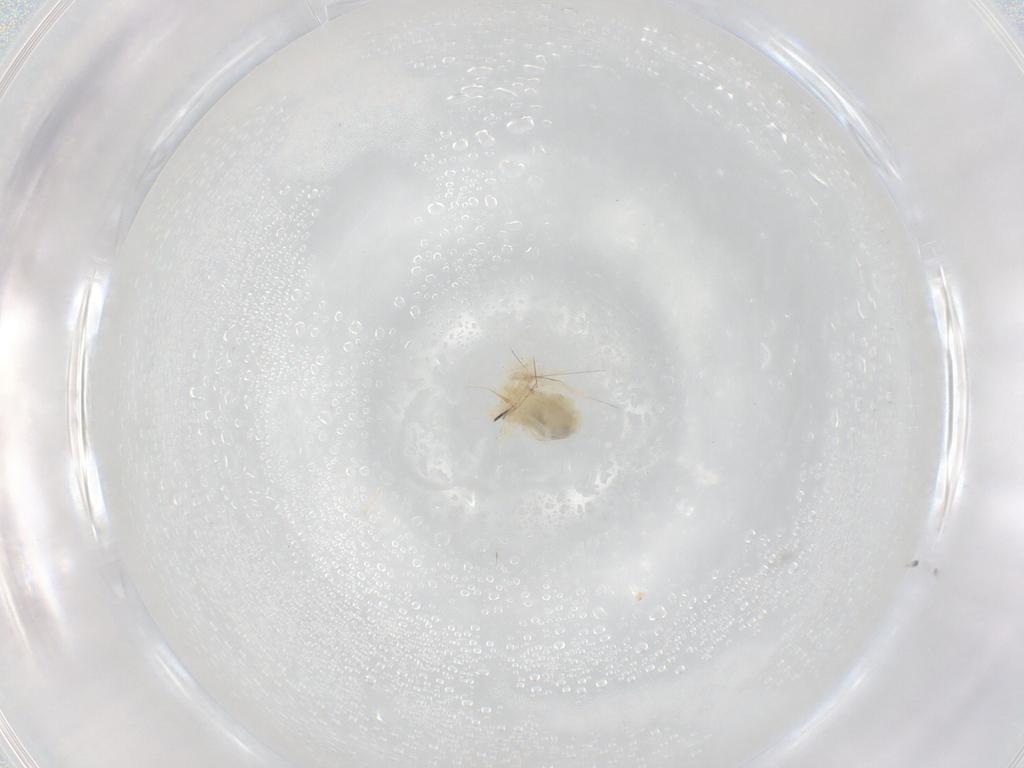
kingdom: Animalia
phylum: Arthropoda
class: Arachnida
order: Trombidiformes
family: Anystidae
